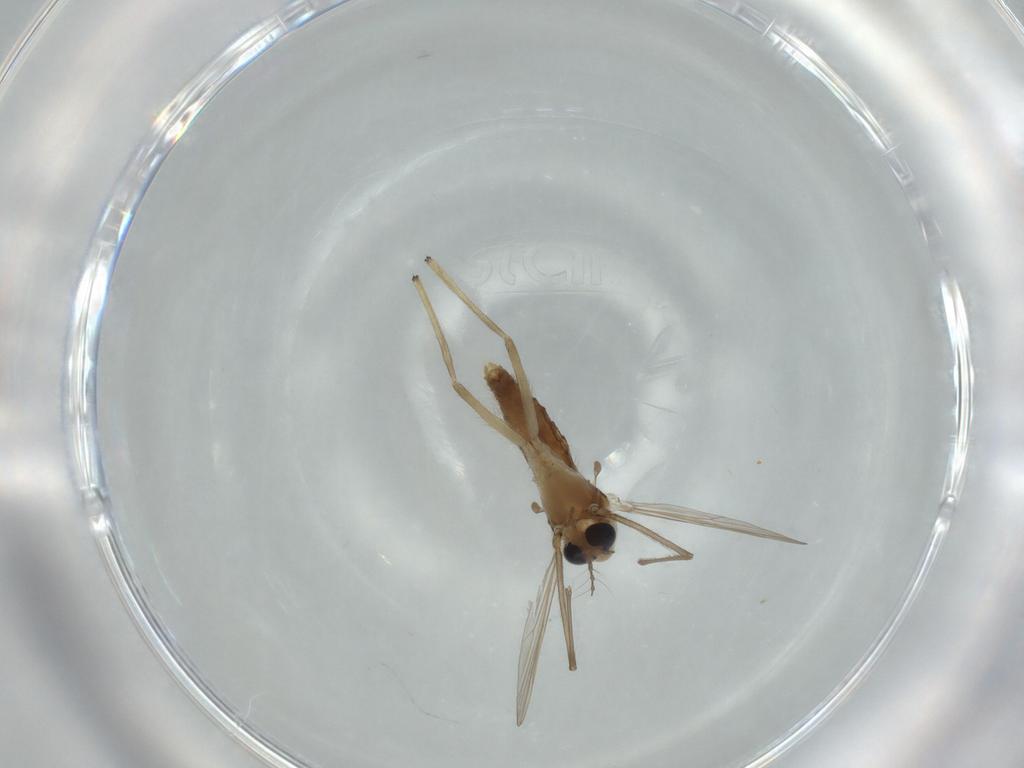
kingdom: Animalia
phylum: Arthropoda
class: Insecta
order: Diptera
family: Chironomidae
